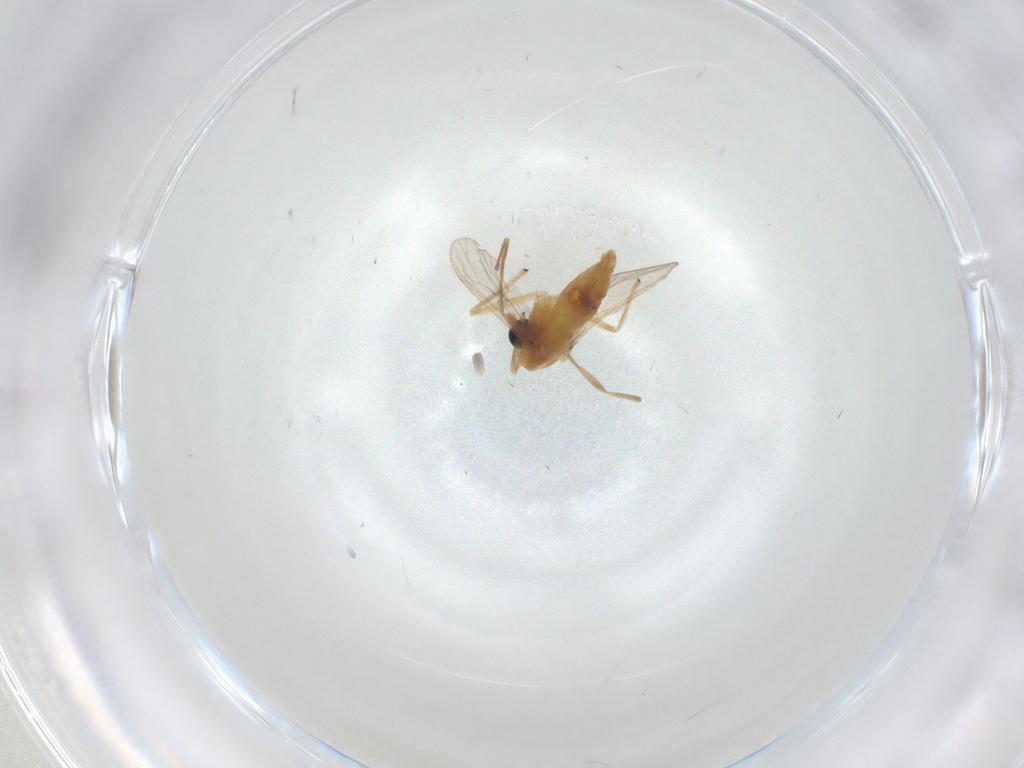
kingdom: Animalia
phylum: Arthropoda
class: Insecta
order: Diptera
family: Chironomidae
